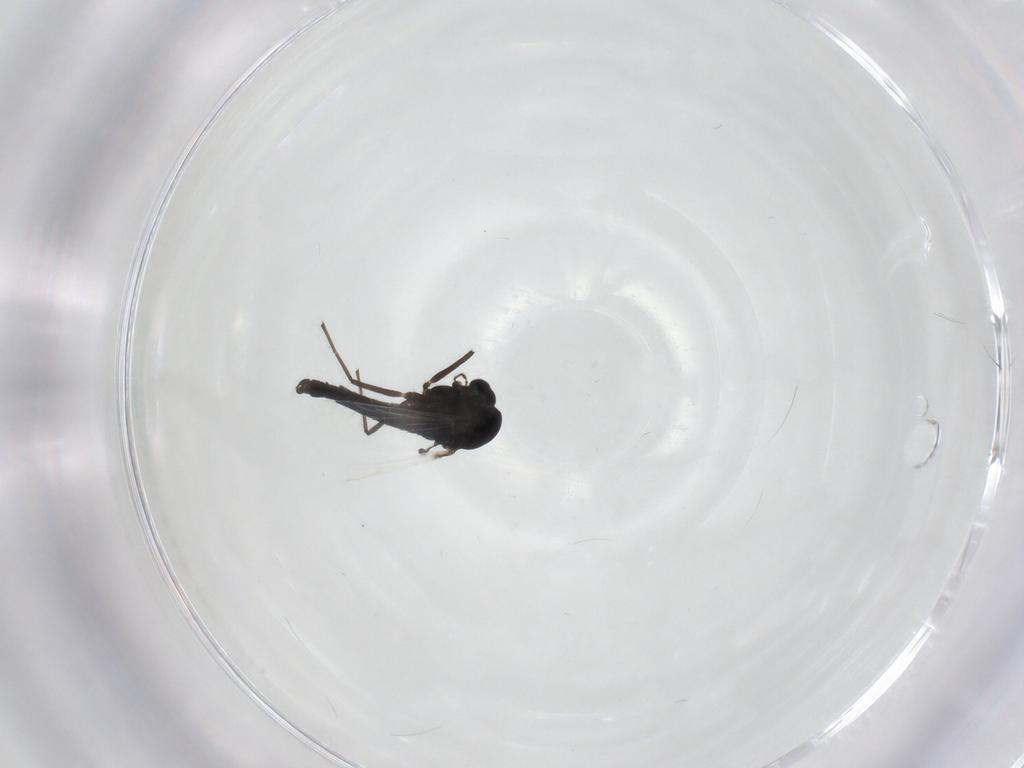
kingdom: Animalia
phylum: Arthropoda
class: Insecta
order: Diptera
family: Chironomidae
